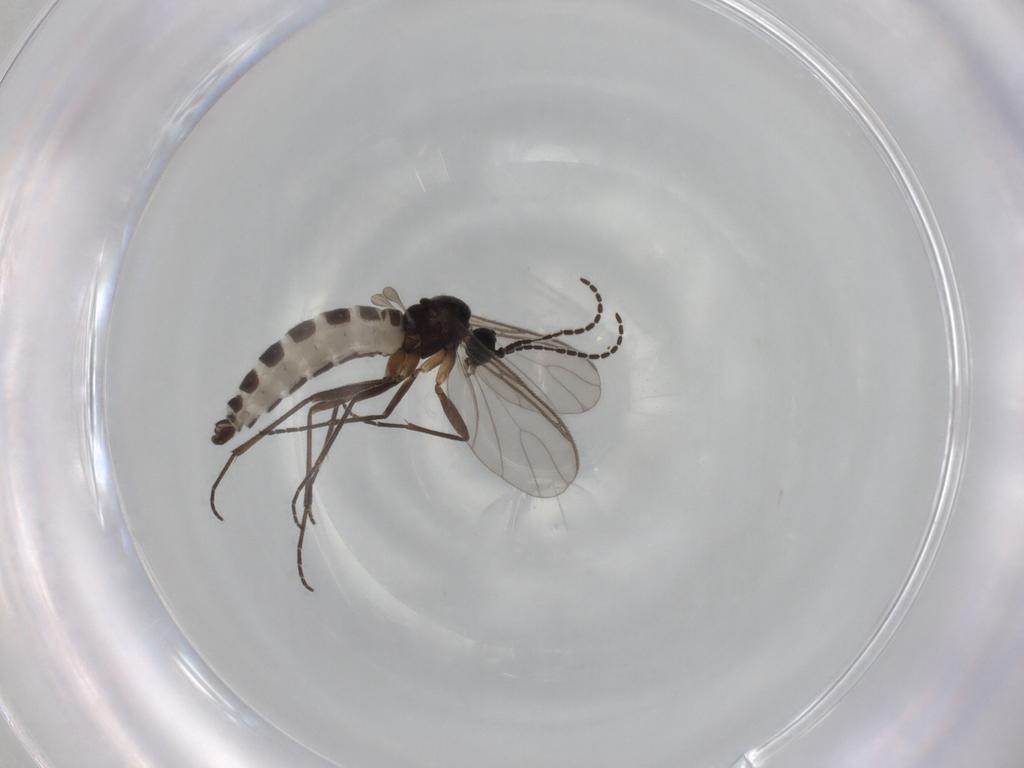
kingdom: Animalia
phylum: Arthropoda
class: Insecta
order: Diptera
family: Sciaridae
